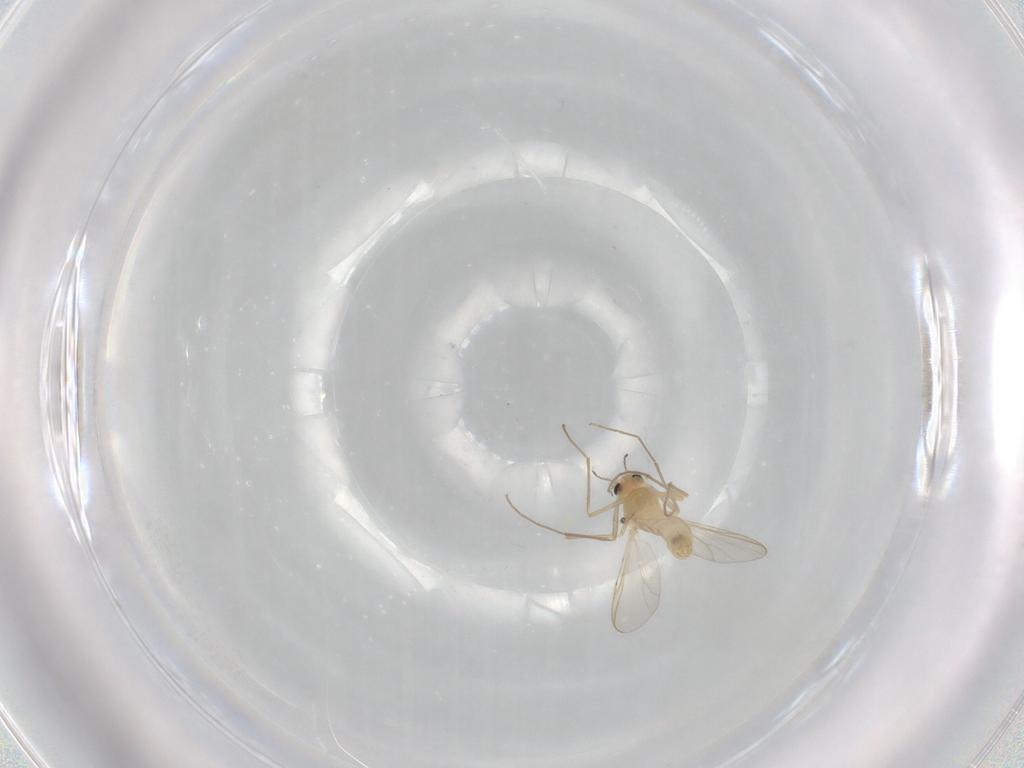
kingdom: Animalia
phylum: Arthropoda
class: Insecta
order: Diptera
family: Chironomidae
